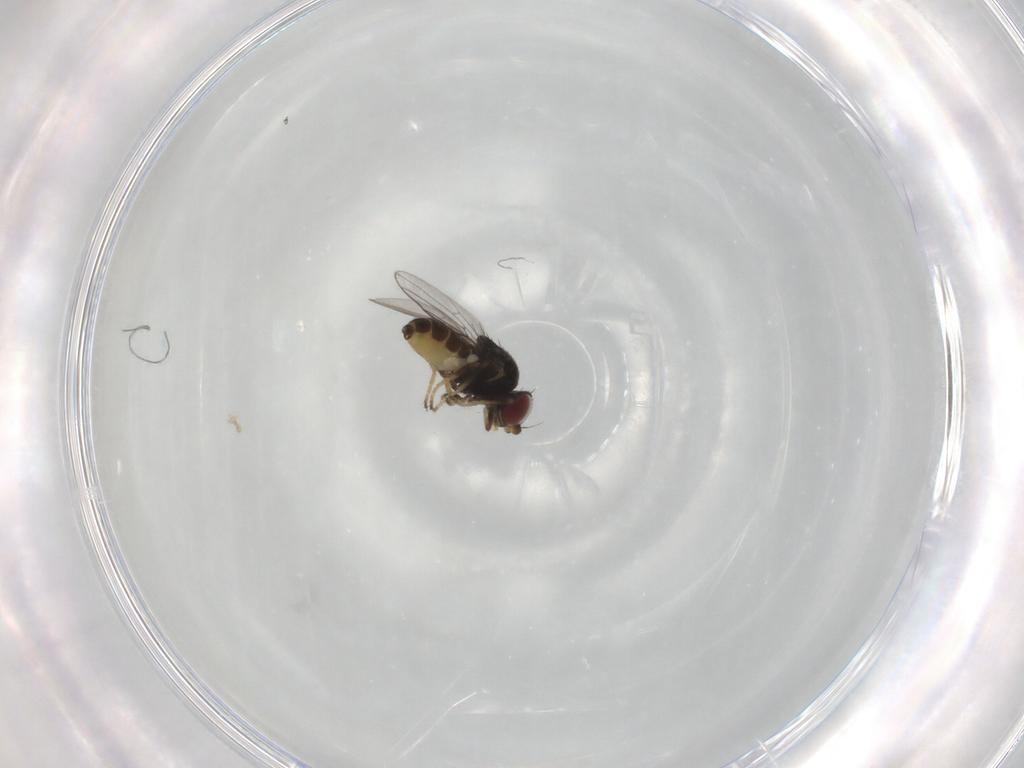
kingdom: Animalia
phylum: Arthropoda
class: Insecta
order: Diptera
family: Chloropidae
